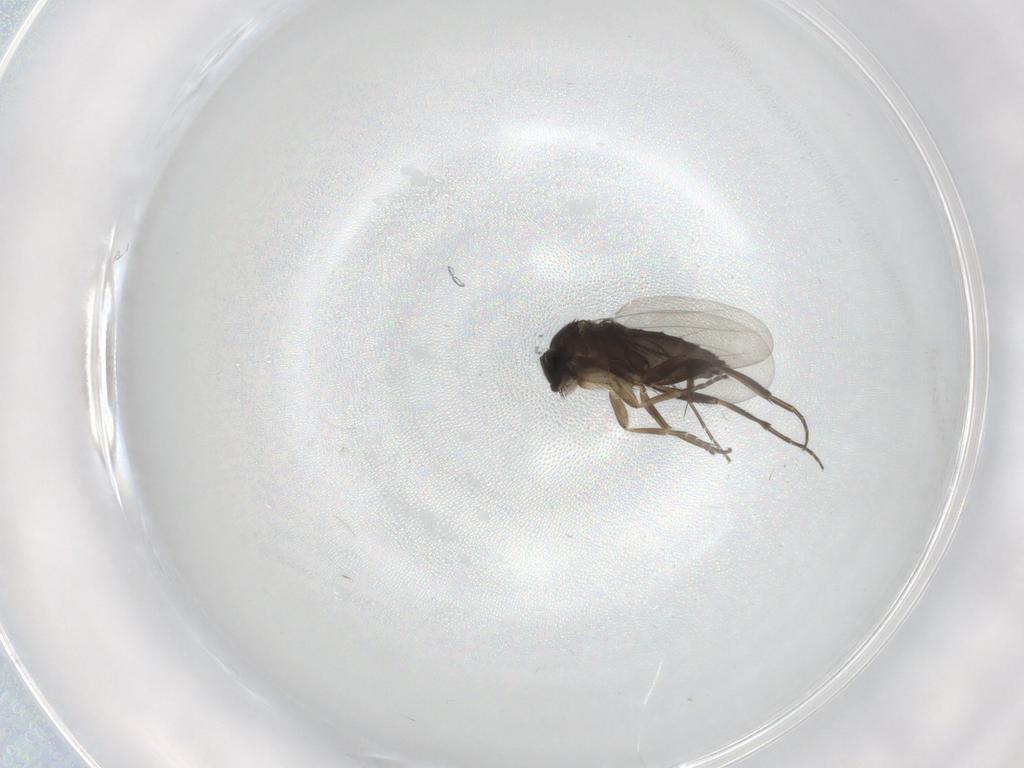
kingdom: Animalia
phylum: Arthropoda
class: Insecta
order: Diptera
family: Phoridae
